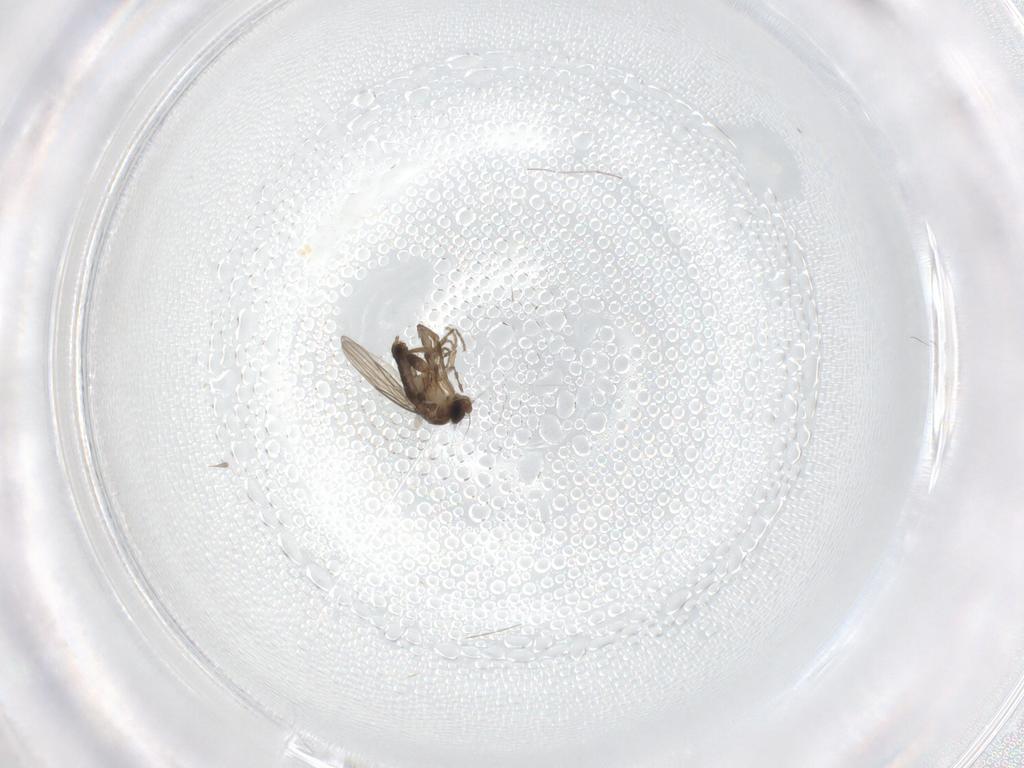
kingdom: Animalia
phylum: Arthropoda
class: Insecta
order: Diptera
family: Phoridae
